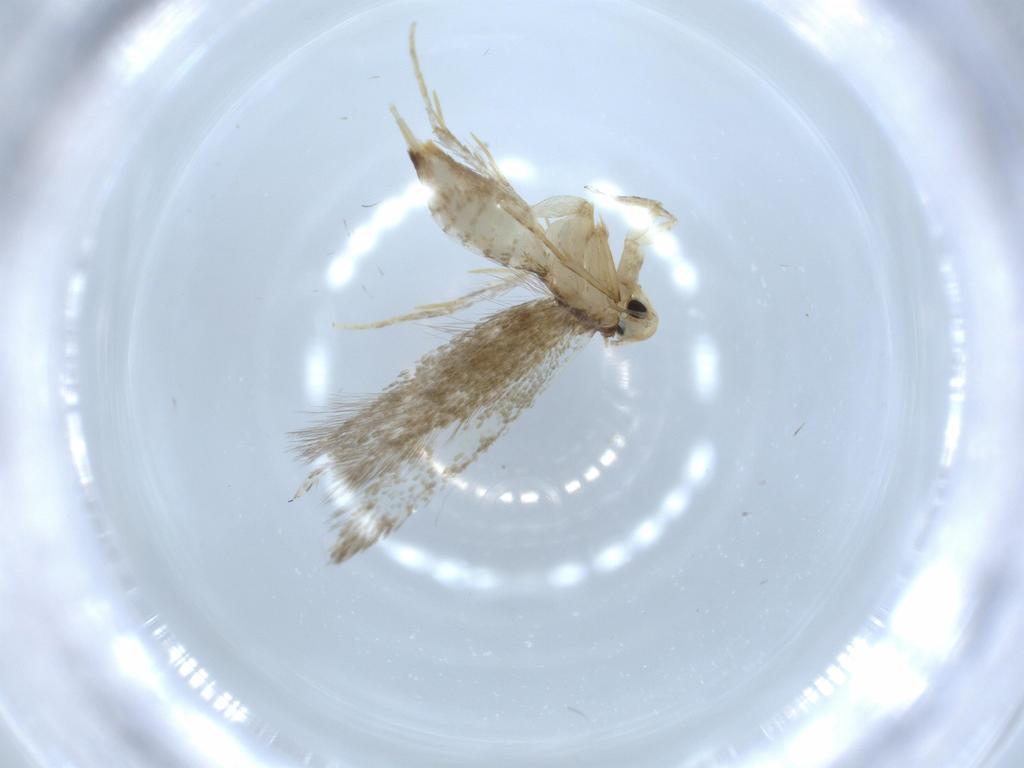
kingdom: Animalia
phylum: Arthropoda
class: Insecta
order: Lepidoptera
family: Tineidae
